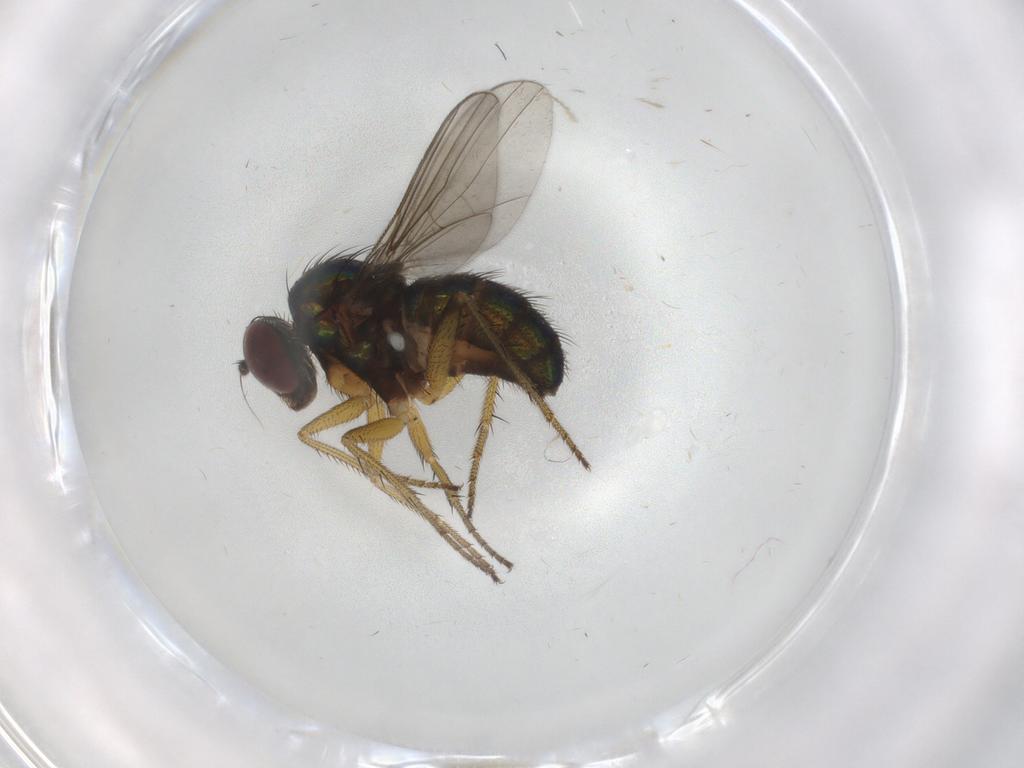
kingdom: Animalia
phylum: Arthropoda
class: Insecta
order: Diptera
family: Dolichopodidae
